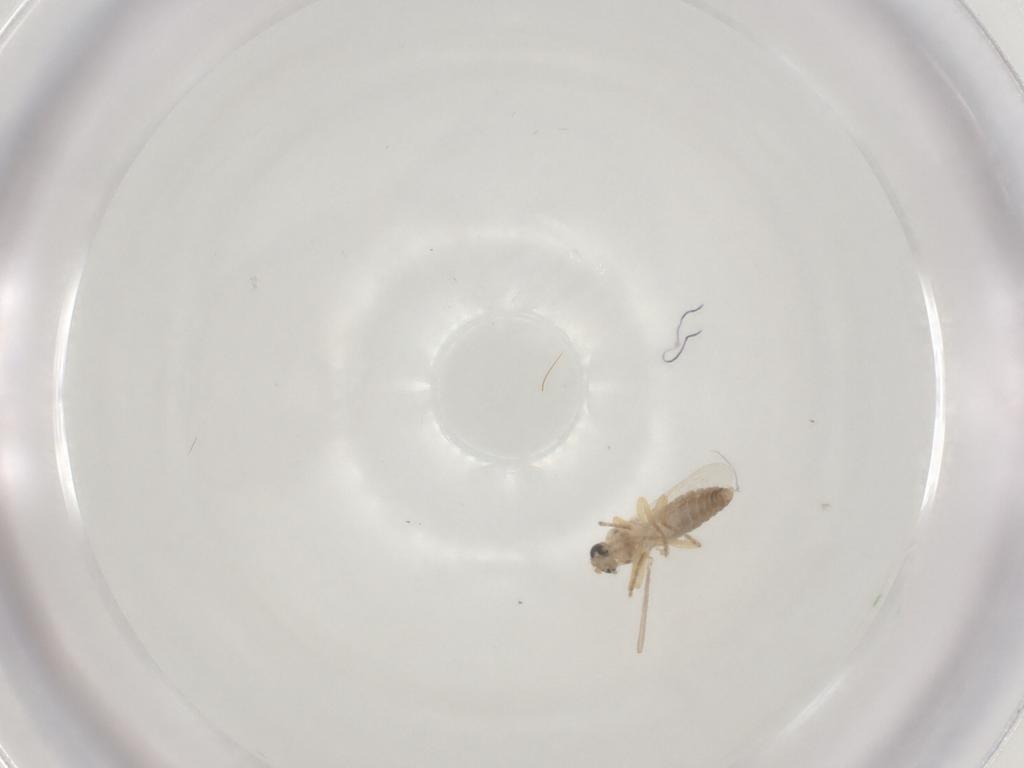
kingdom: Animalia
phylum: Arthropoda
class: Insecta
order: Diptera
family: Ceratopogonidae
